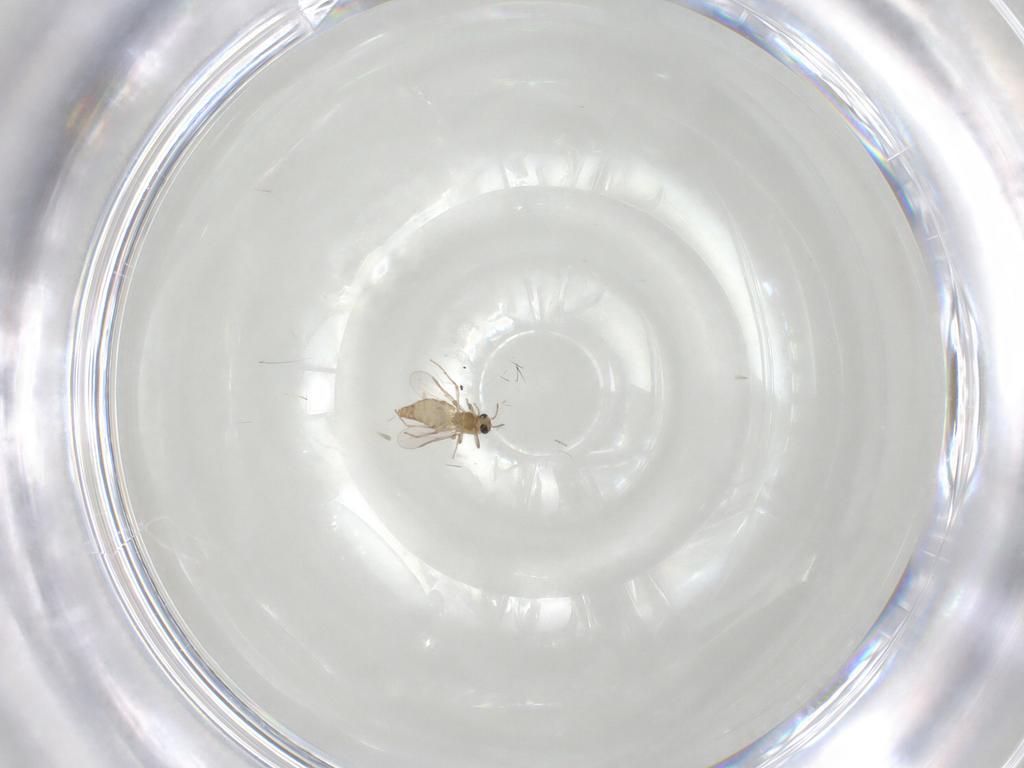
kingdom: Animalia
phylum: Arthropoda
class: Insecta
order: Diptera
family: Chironomidae
